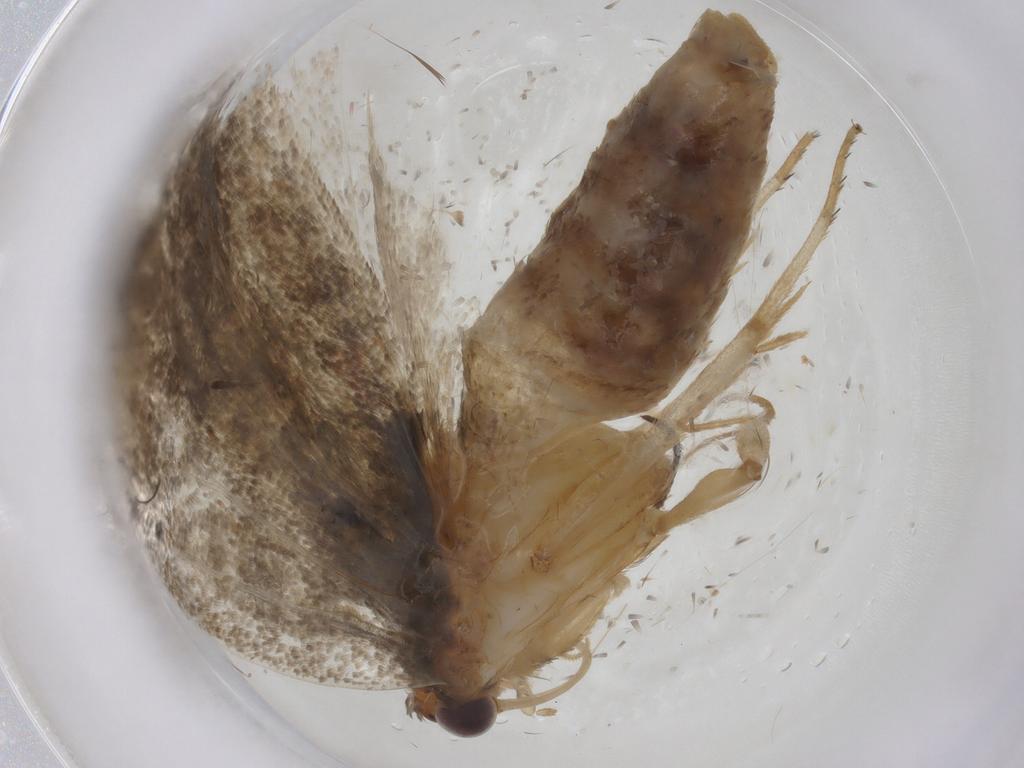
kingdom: Animalia
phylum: Arthropoda
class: Insecta
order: Lepidoptera
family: Tortricidae
